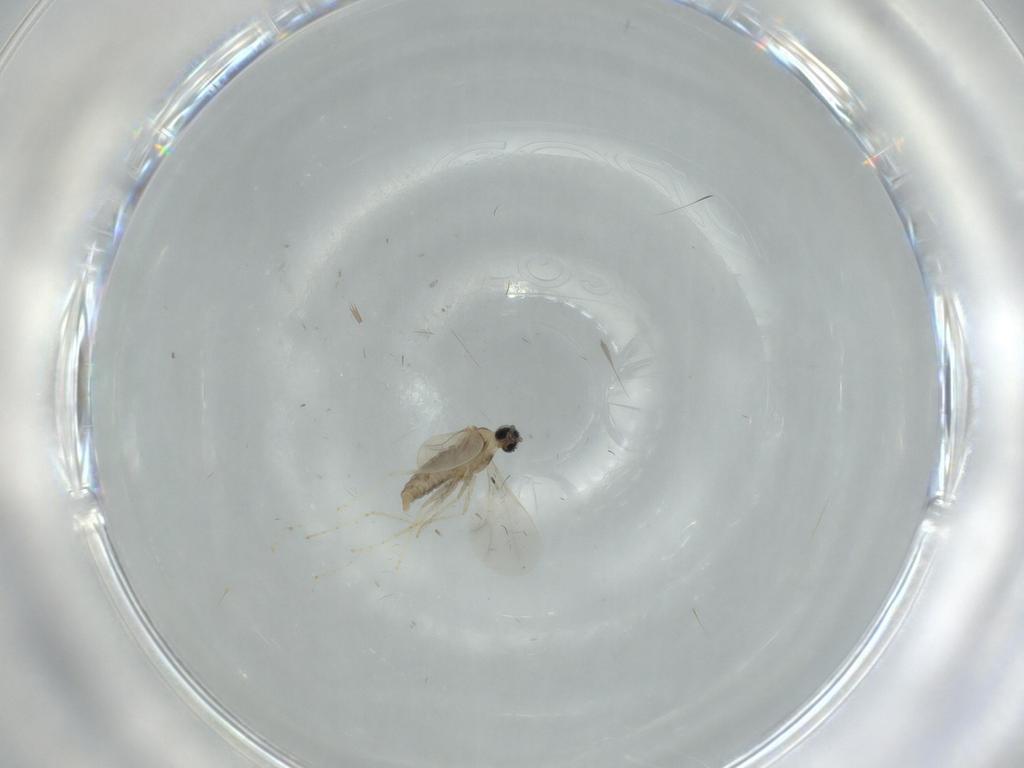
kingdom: Animalia
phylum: Arthropoda
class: Insecta
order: Diptera
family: Cecidomyiidae
